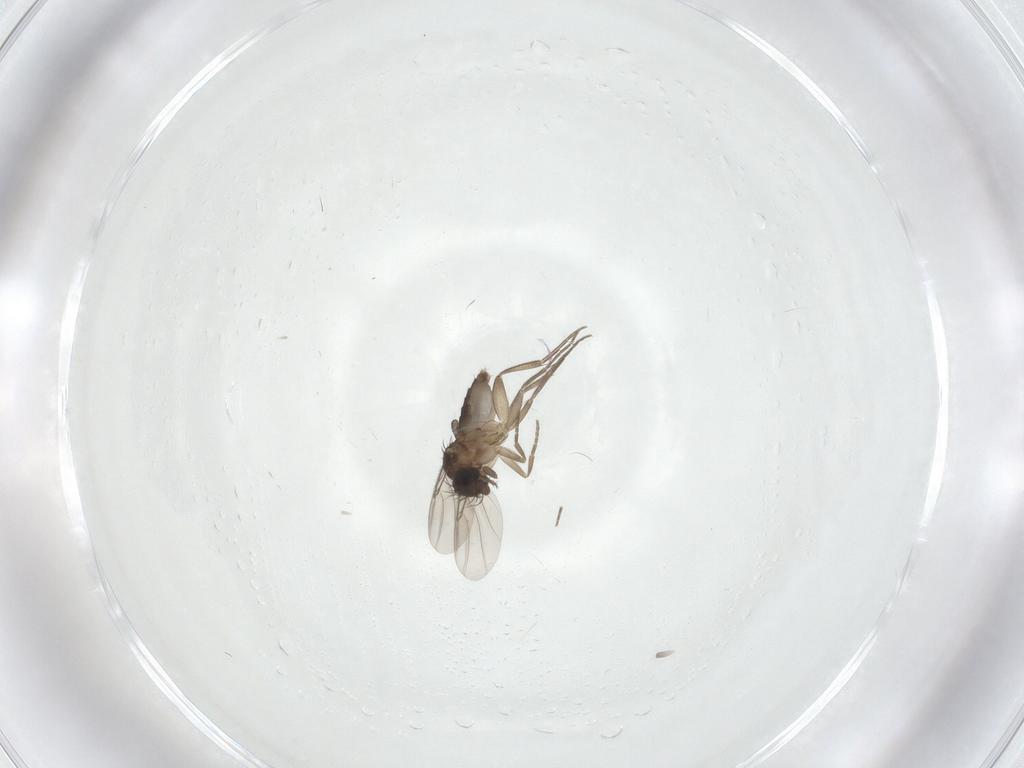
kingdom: Animalia
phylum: Arthropoda
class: Insecta
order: Diptera
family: Phoridae
